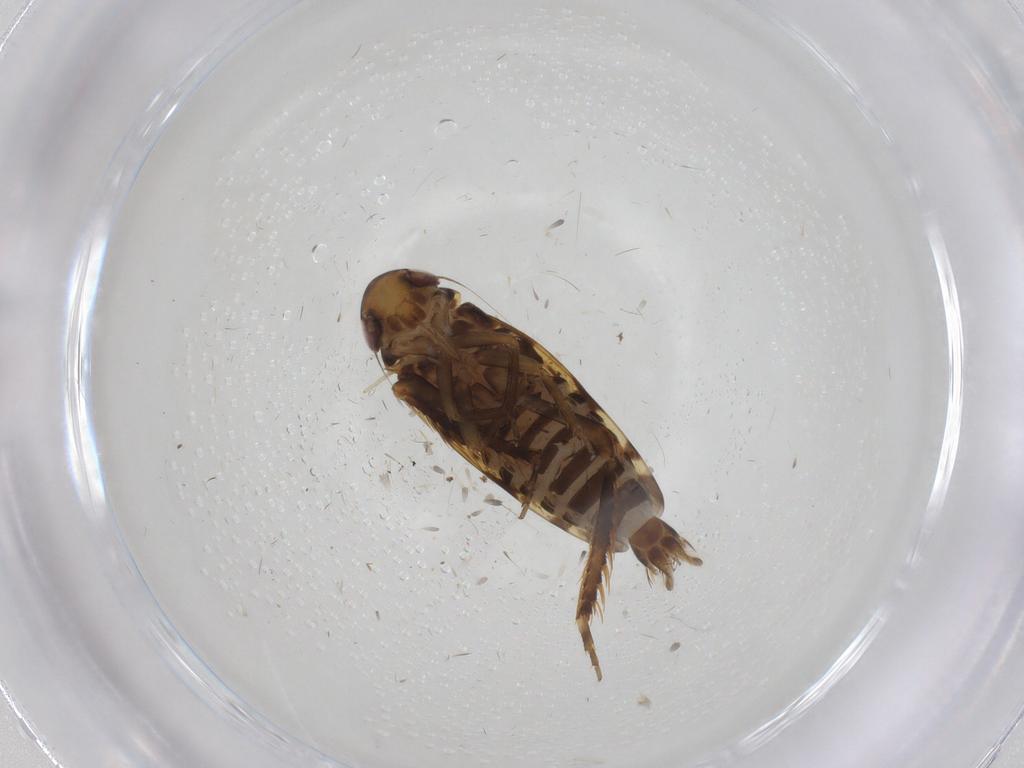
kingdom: Animalia
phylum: Arthropoda
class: Insecta
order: Hemiptera
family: Cicadellidae
